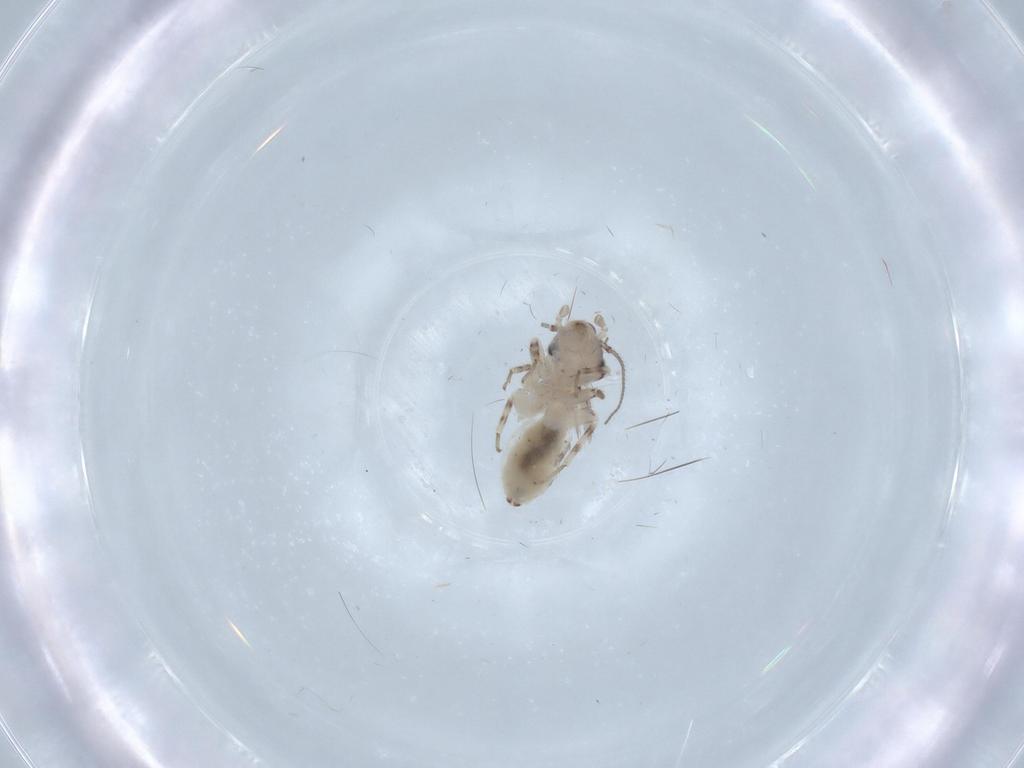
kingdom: Animalia
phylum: Arthropoda
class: Insecta
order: Psocodea
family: Lepidopsocidae
